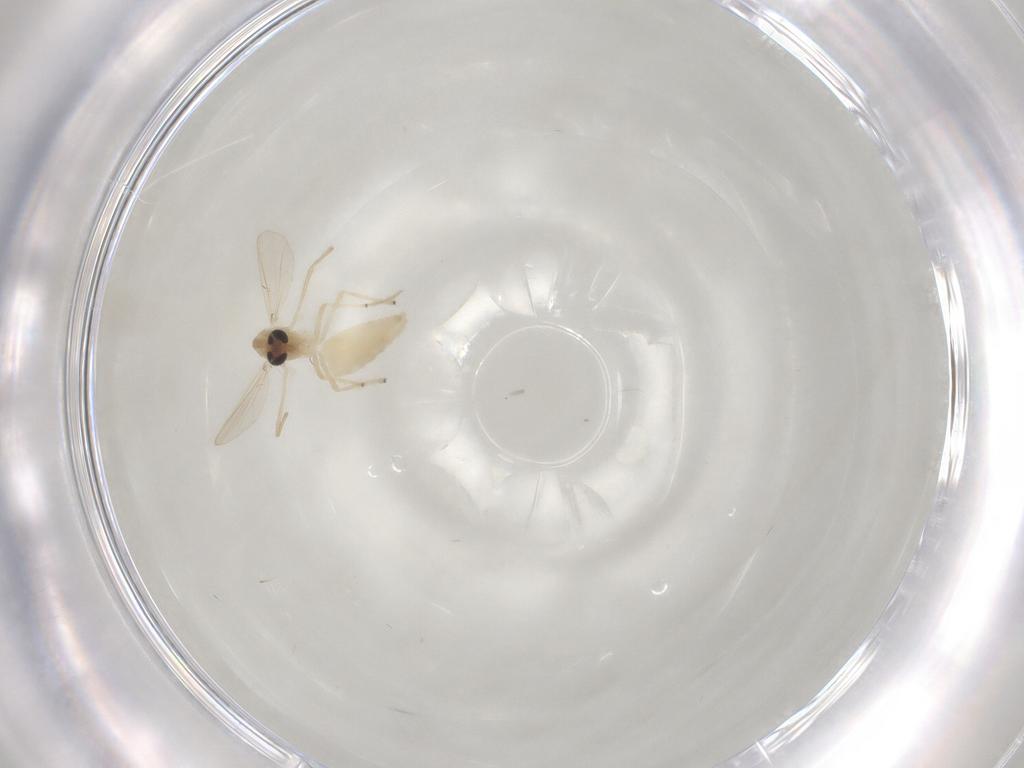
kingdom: Animalia
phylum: Arthropoda
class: Insecta
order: Diptera
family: Chironomidae
